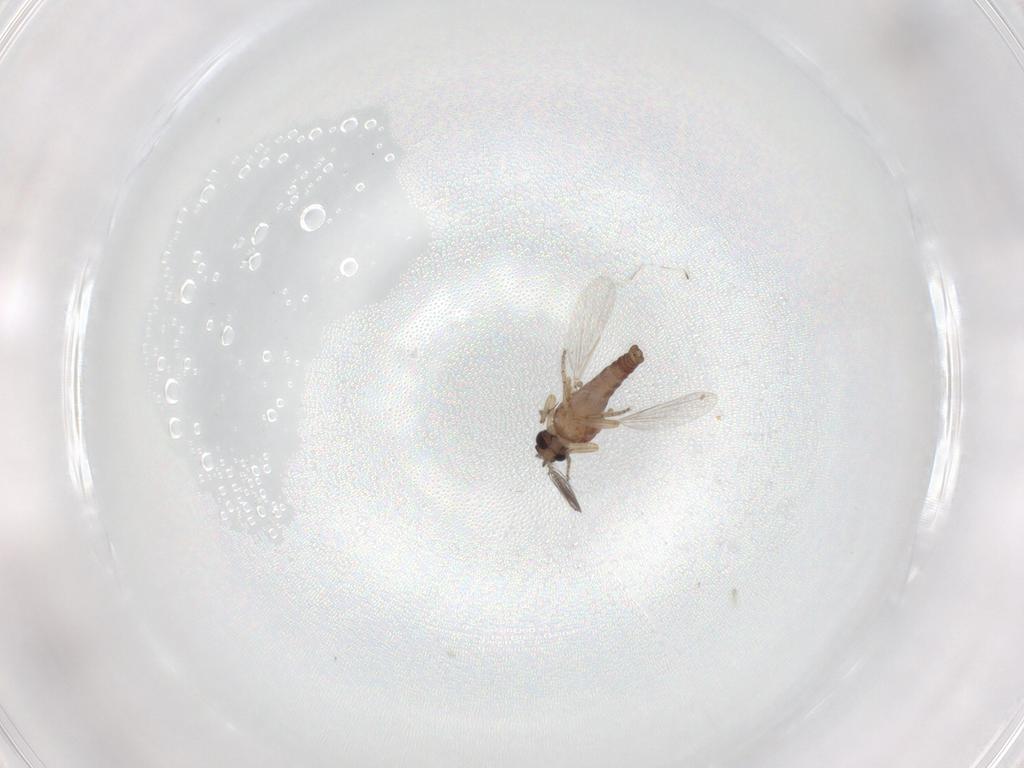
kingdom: Animalia
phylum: Arthropoda
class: Insecta
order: Diptera
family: Sciaridae
